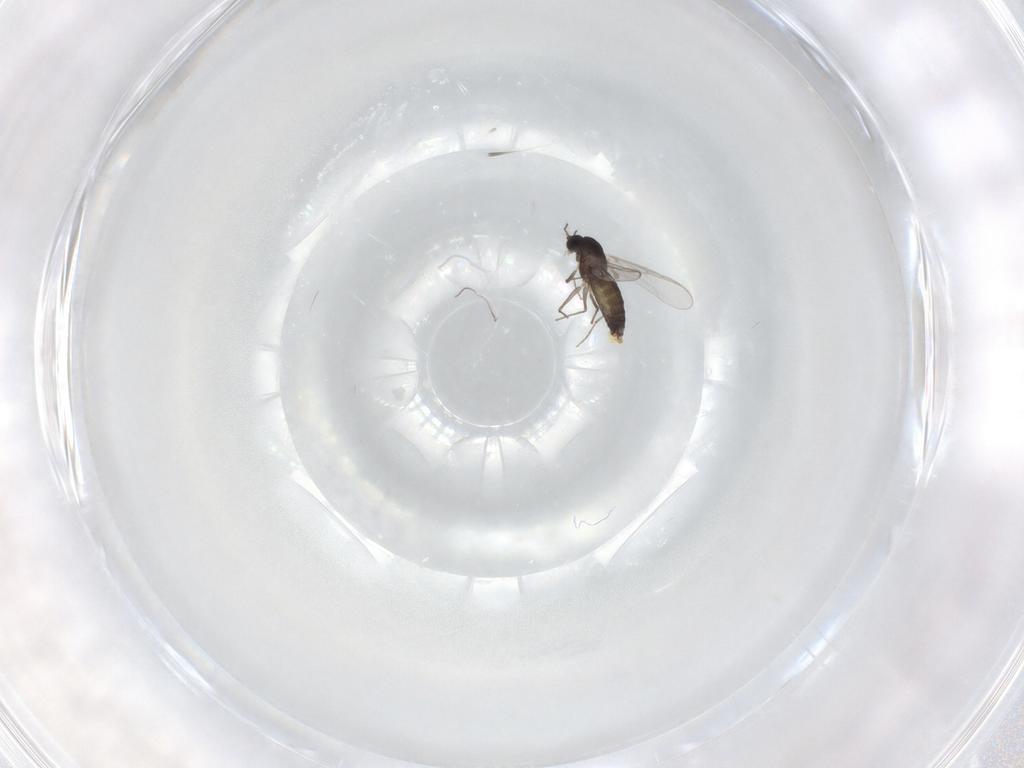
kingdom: Animalia
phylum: Arthropoda
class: Insecta
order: Diptera
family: Chironomidae
